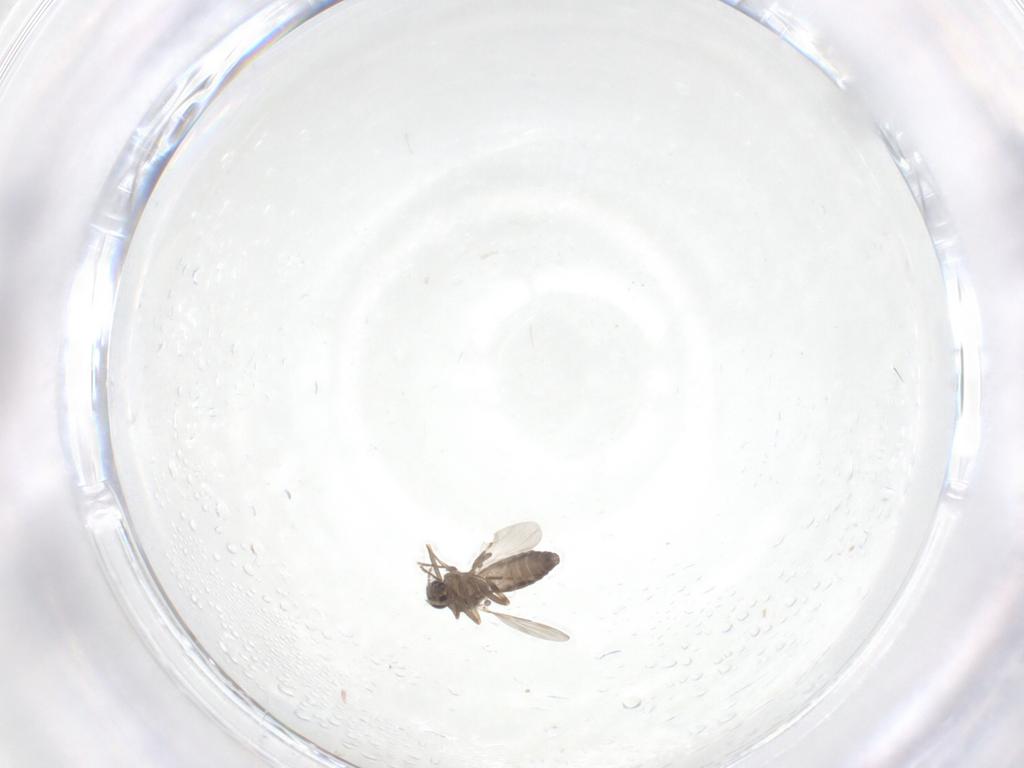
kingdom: Animalia
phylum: Arthropoda
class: Insecta
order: Diptera
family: Ceratopogonidae
